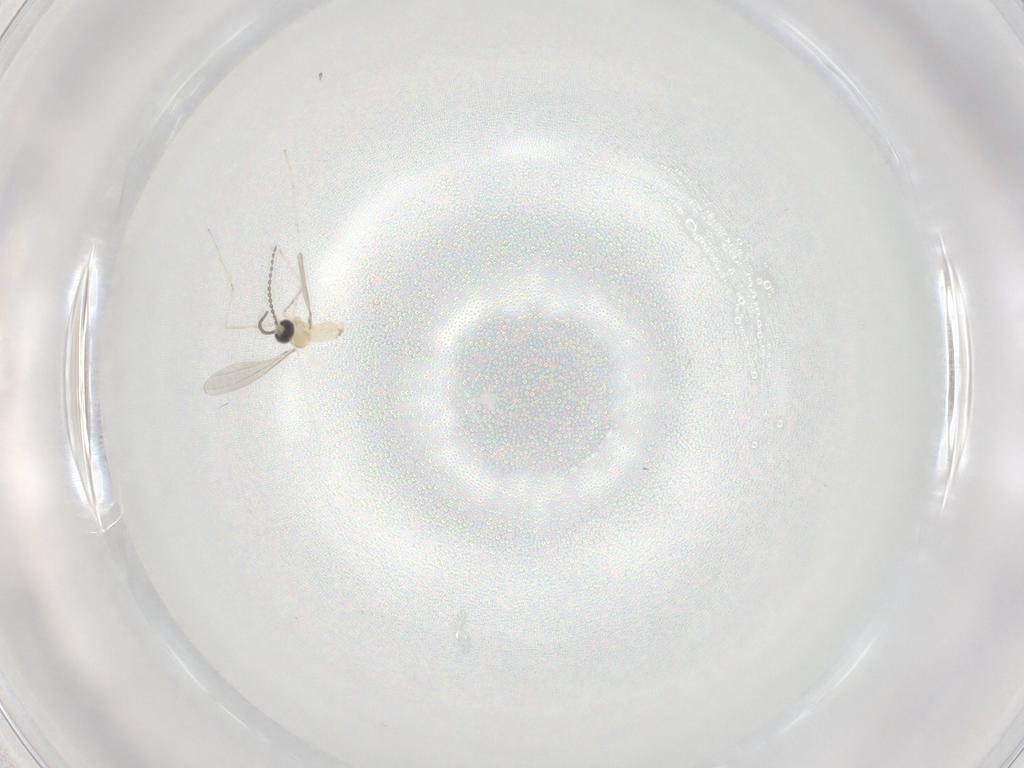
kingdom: Animalia
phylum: Arthropoda
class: Insecta
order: Diptera
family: Cecidomyiidae
